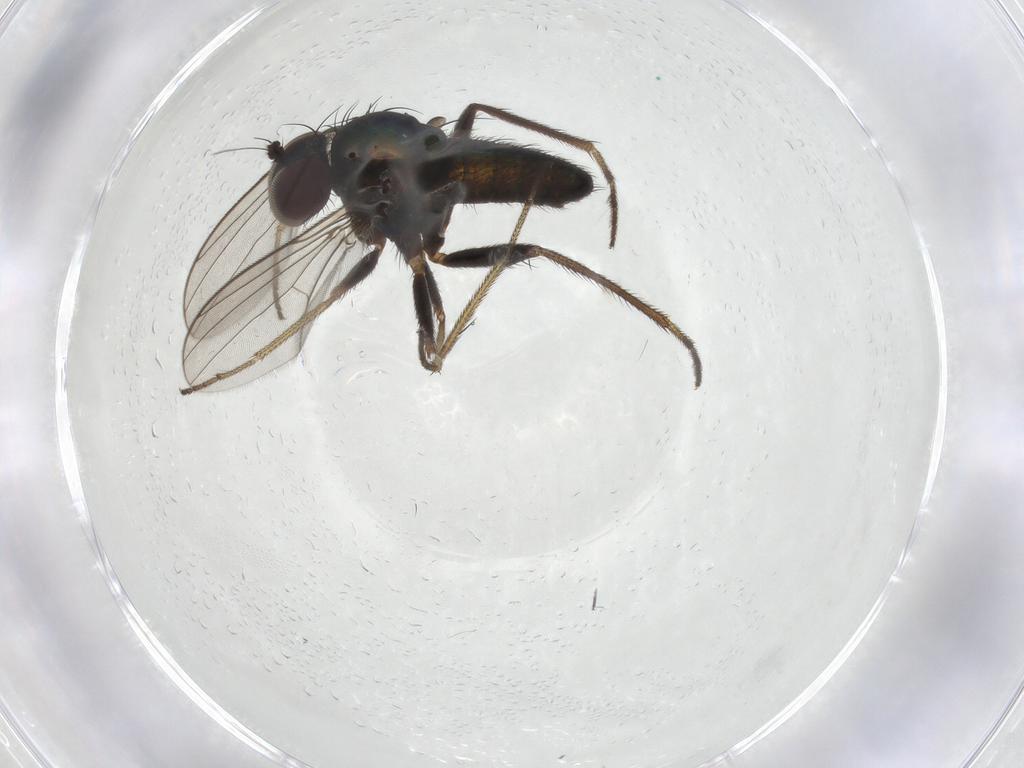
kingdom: Animalia
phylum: Arthropoda
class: Insecta
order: Diptera
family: Dolichopodidae
